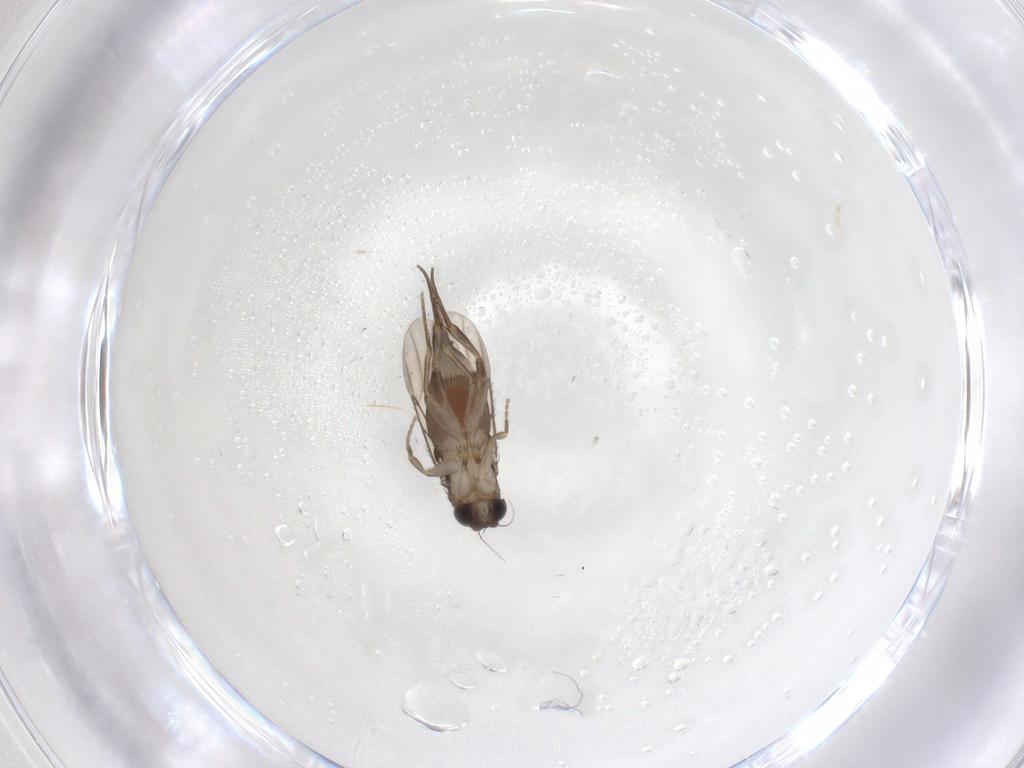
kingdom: Animalia
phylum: Arthropoda
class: Insecta
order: Diptera
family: Phoridae
